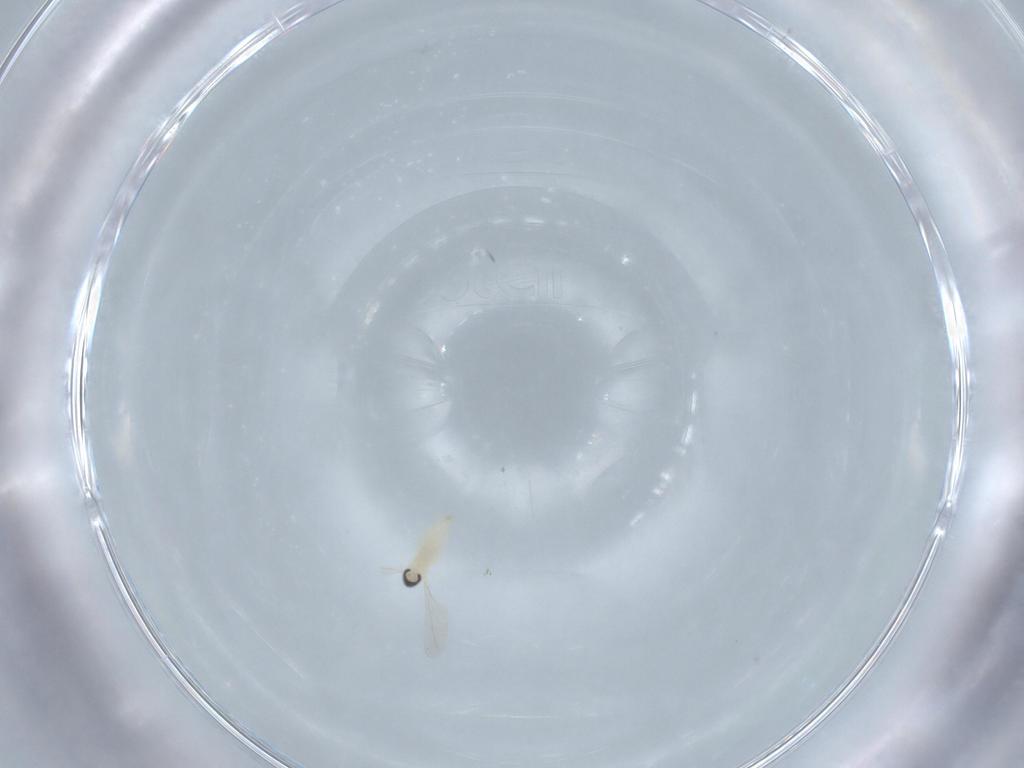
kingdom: Animalia
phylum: Arthropoda
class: Insecta
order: Diptera
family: Cecidomyiidae
